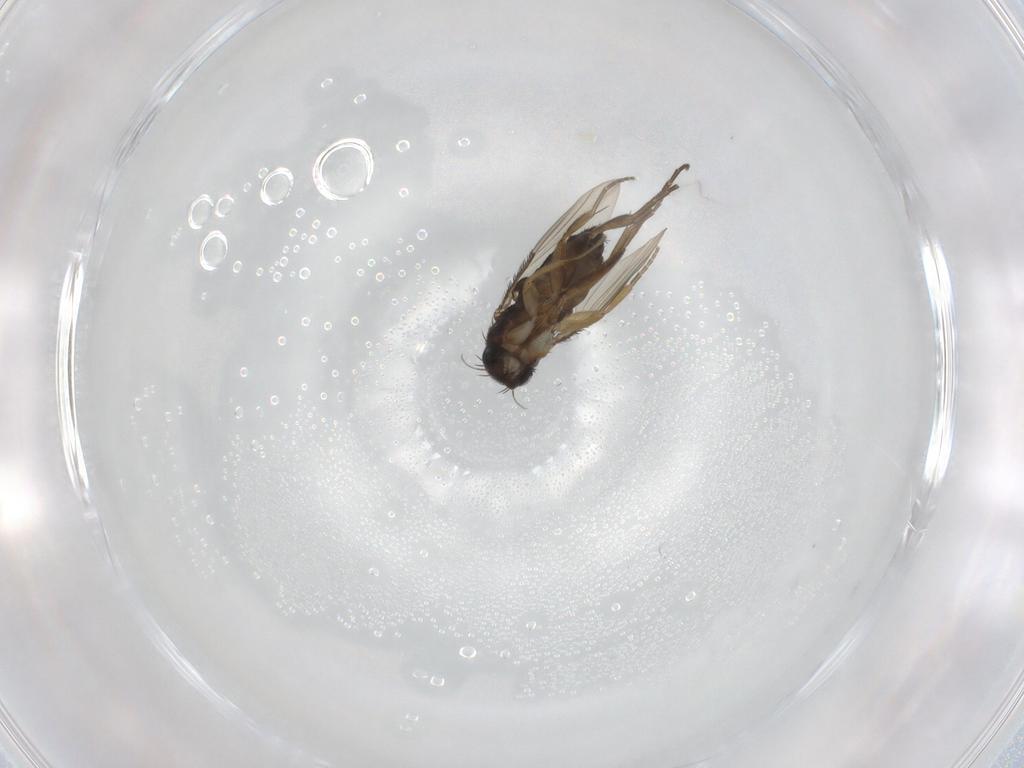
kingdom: Animalia
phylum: Arthropoda
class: Insecta
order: Diptera
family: Phoridae
